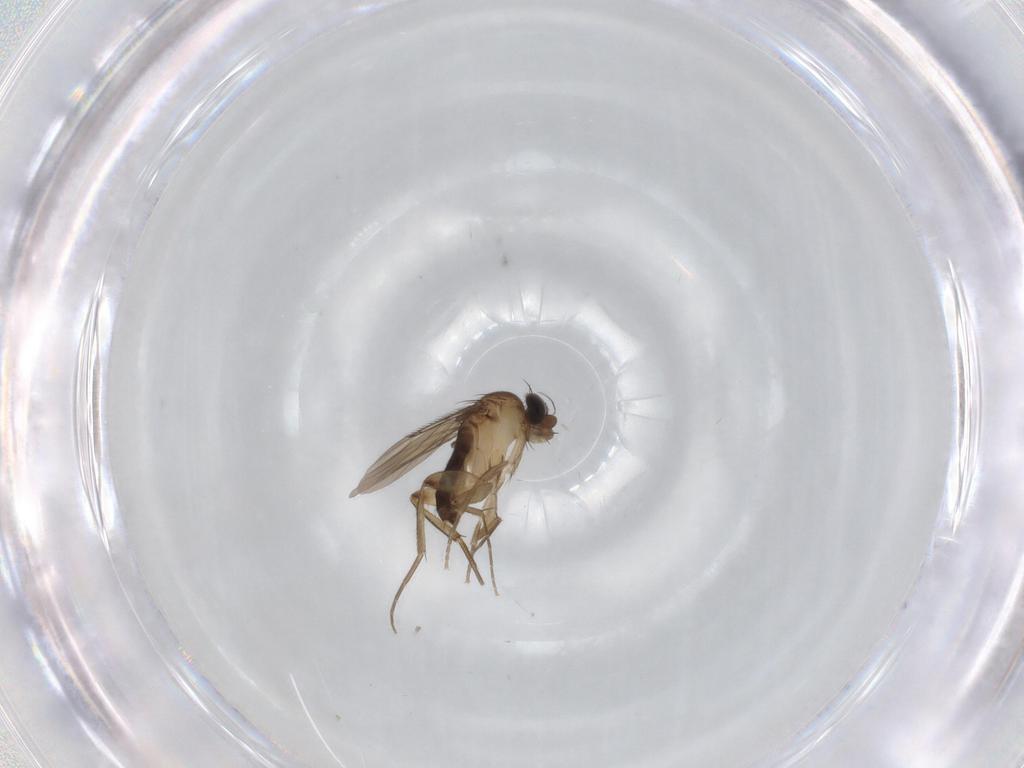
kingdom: Animalia
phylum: Arthropoda
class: Insecta
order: Diptera
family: Phoridae
